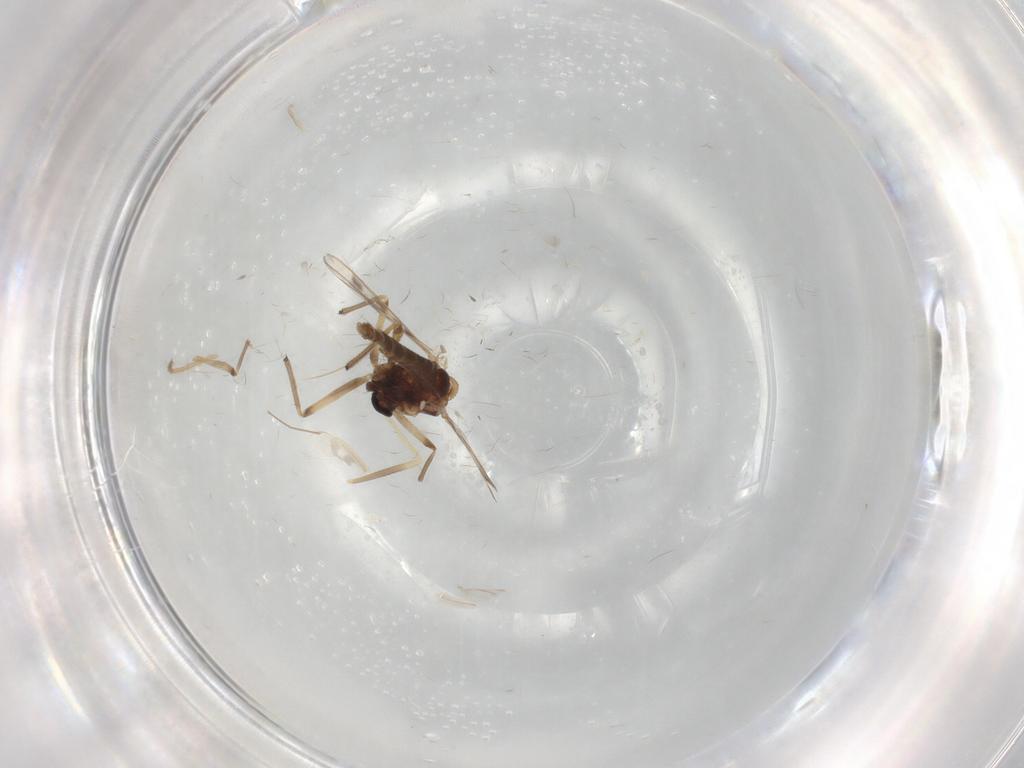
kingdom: Animalia
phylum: Arthropoda
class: Insecta
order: Diptera
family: Chironomidae
